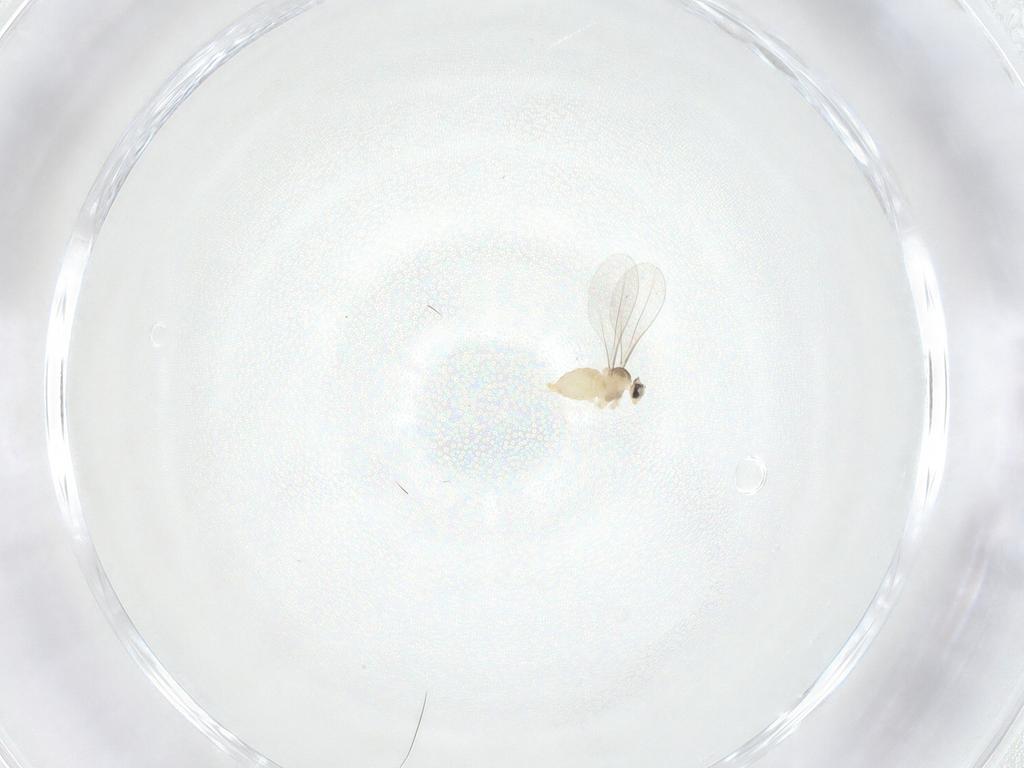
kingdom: Animalia
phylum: Arthropoda
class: Insecta
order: Diptera
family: Cecidomyiidae
